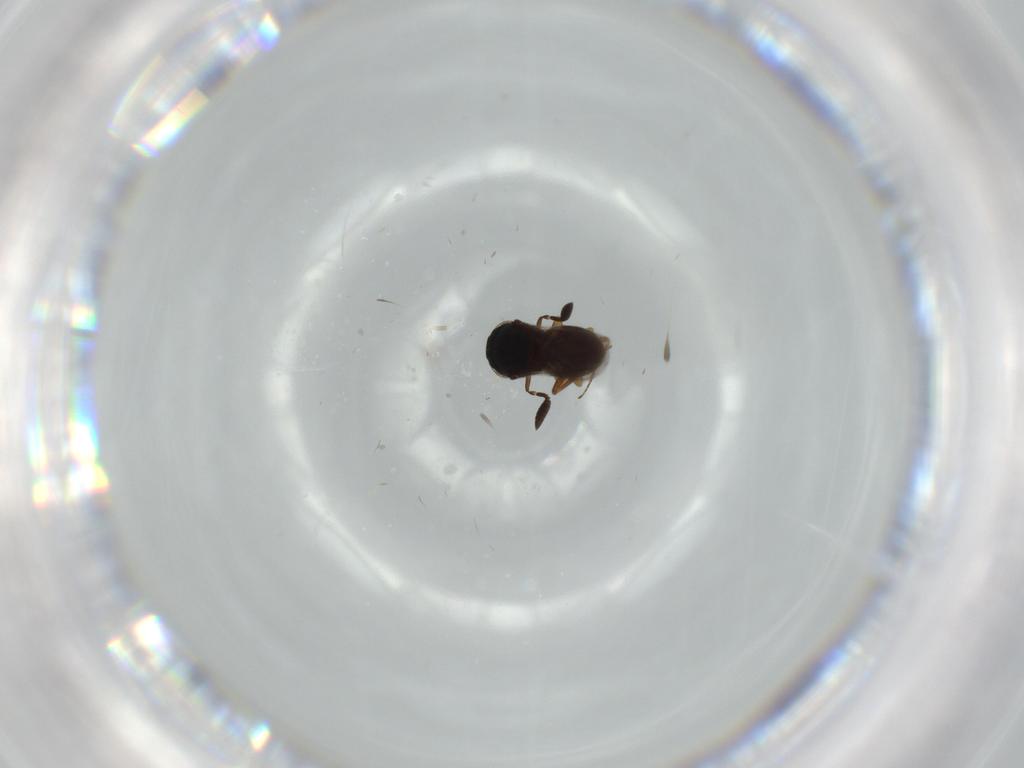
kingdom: Animalia
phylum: Arthropoda
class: Insecta
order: Coleoptera
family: Curculionidae
